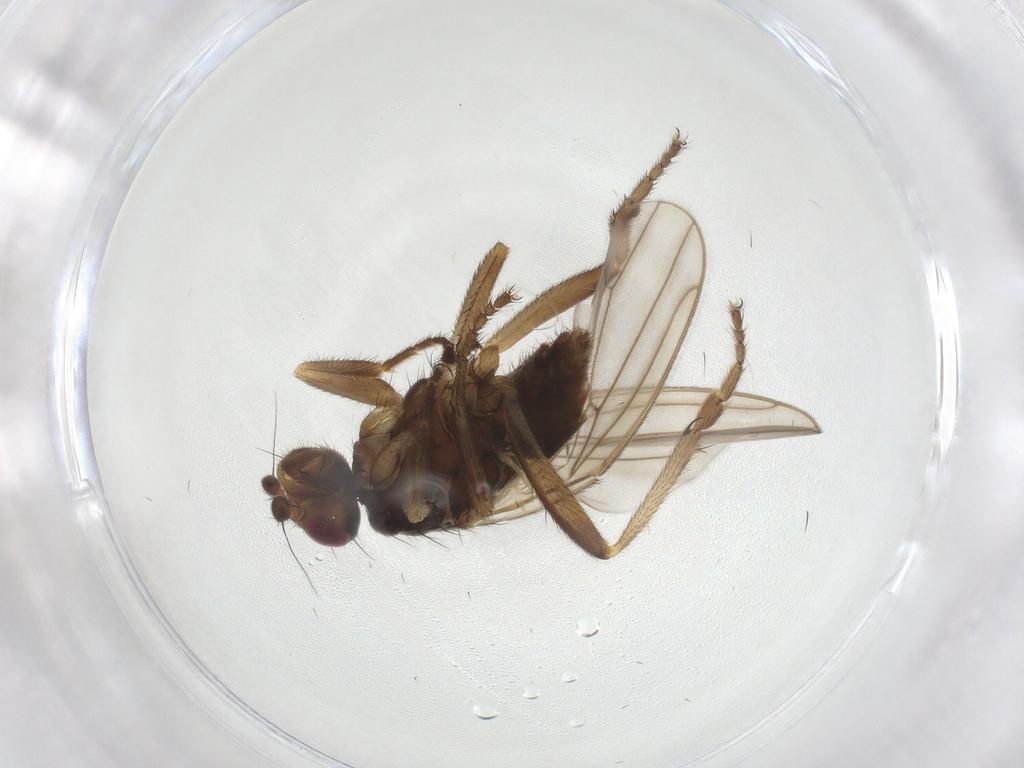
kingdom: Animalia
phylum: Arthropoda
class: Insecta
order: Diptera
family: Sphaeroceridae
